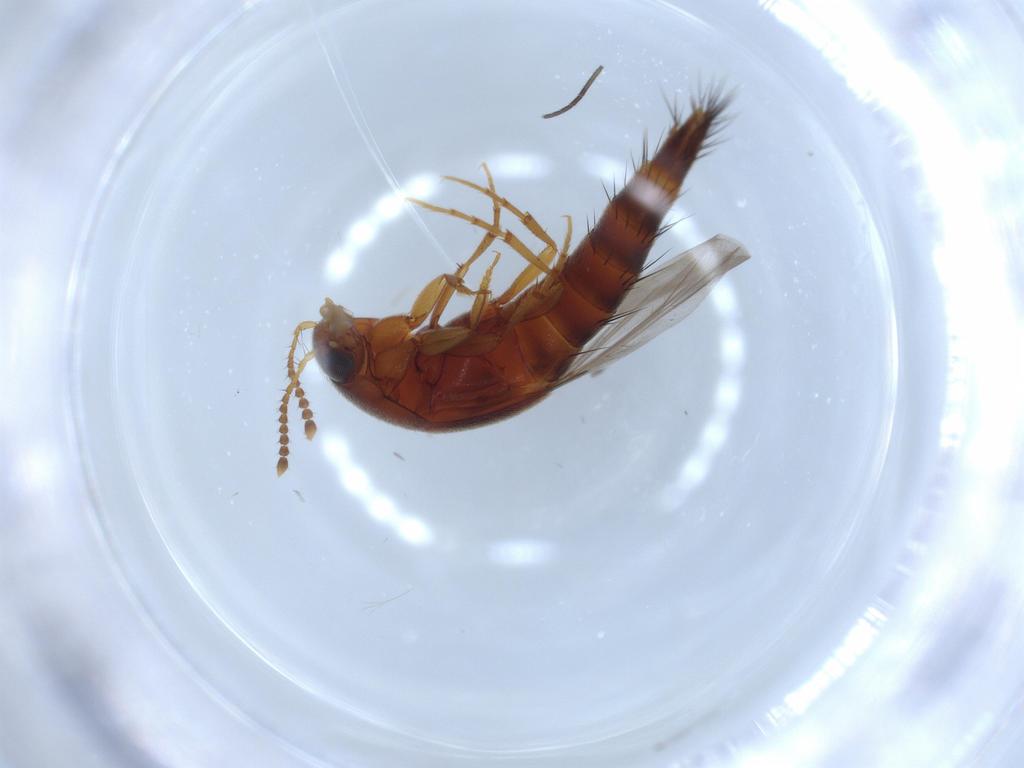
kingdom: Animalia
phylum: Arthropoda
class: Insecta
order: Coleoptera
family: Staphylinidae
